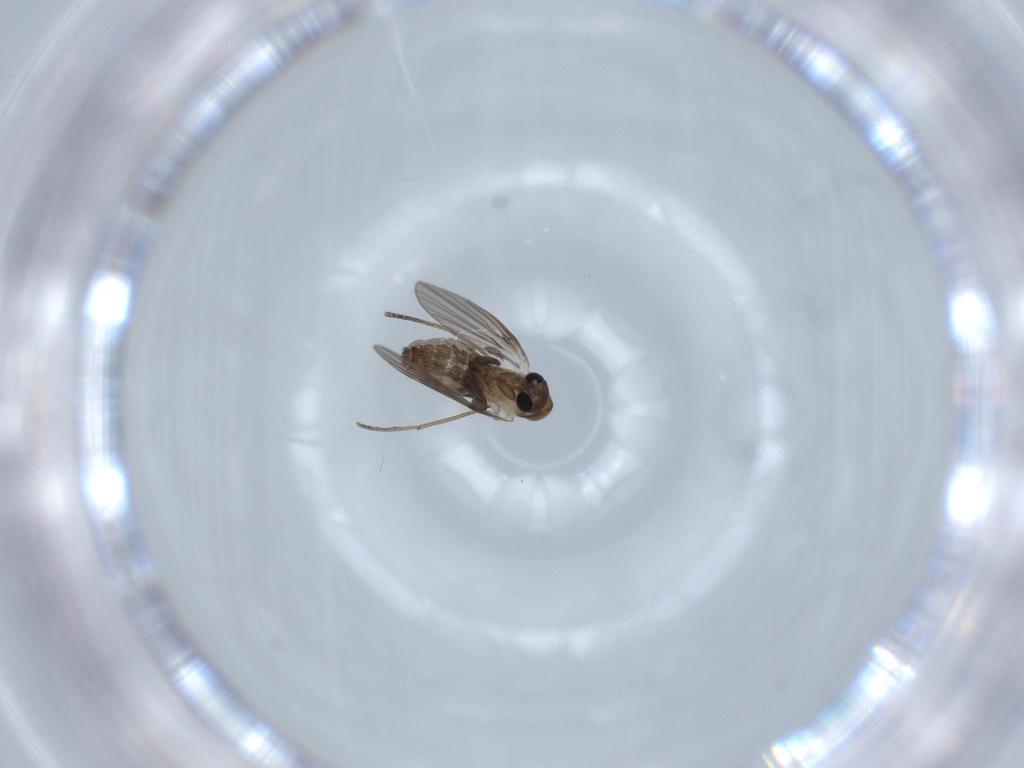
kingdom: Animalia
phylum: Arthropoda
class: Insecta
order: Diptera
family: Psychodidae
